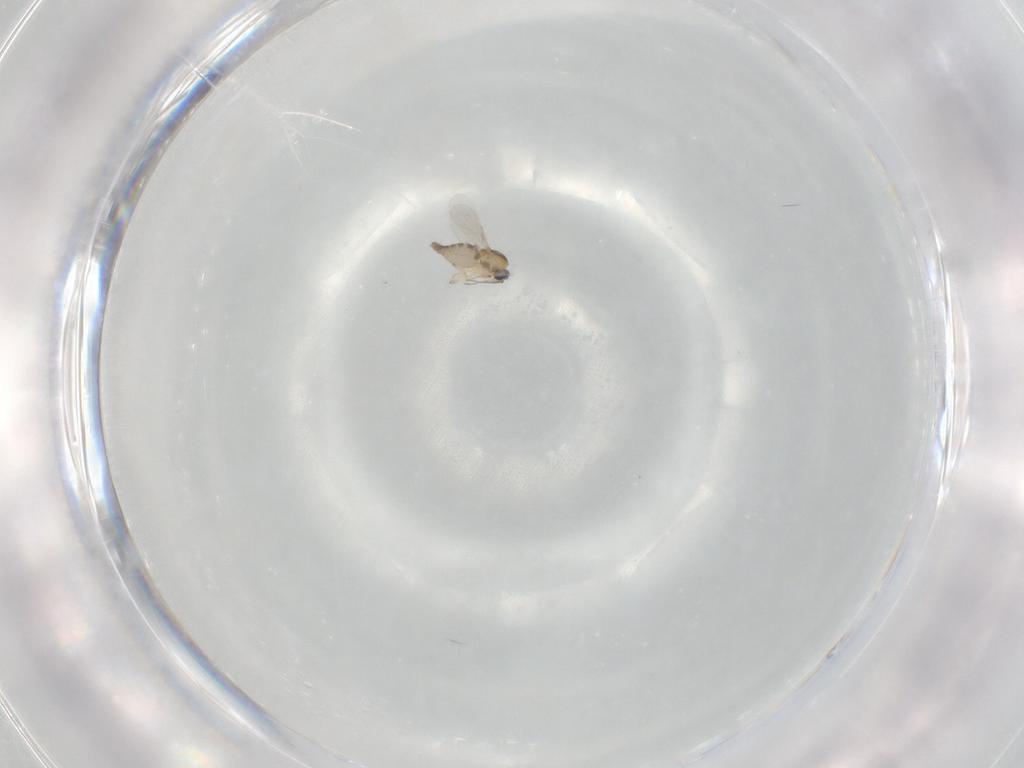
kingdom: Animalia
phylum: Arthropoda
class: Insecta
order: Diptera
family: Ceratopogonidae
